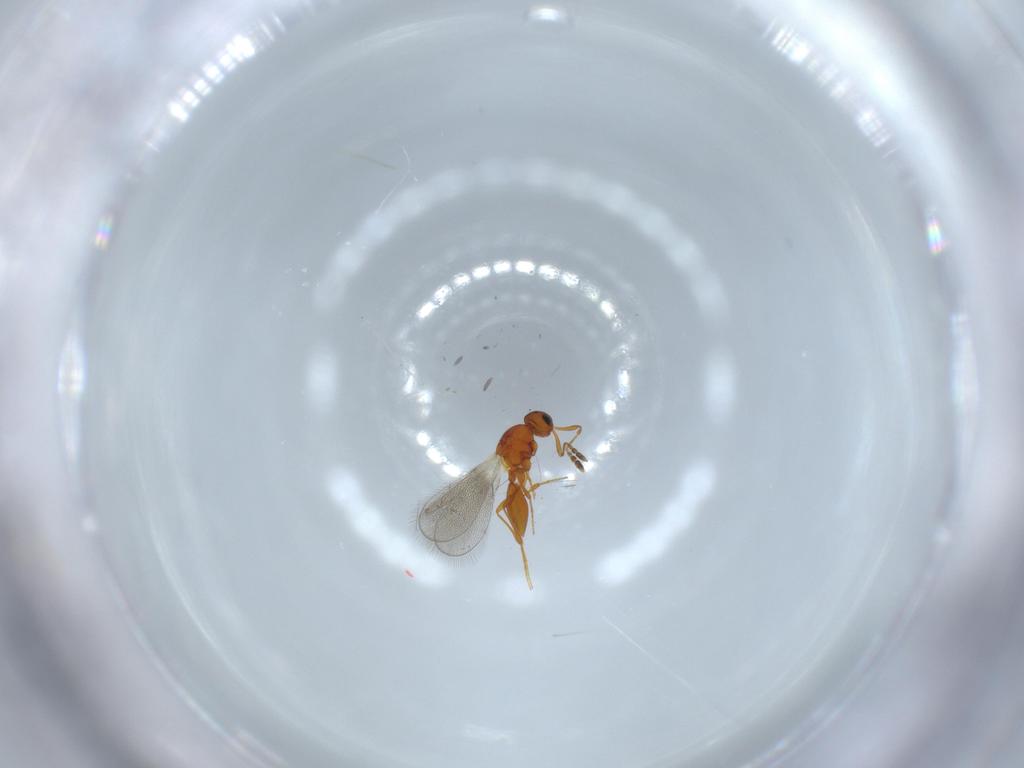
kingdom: Animalia
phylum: Arthropoda
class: Insecta
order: Hymenoptera
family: Platygastridae
